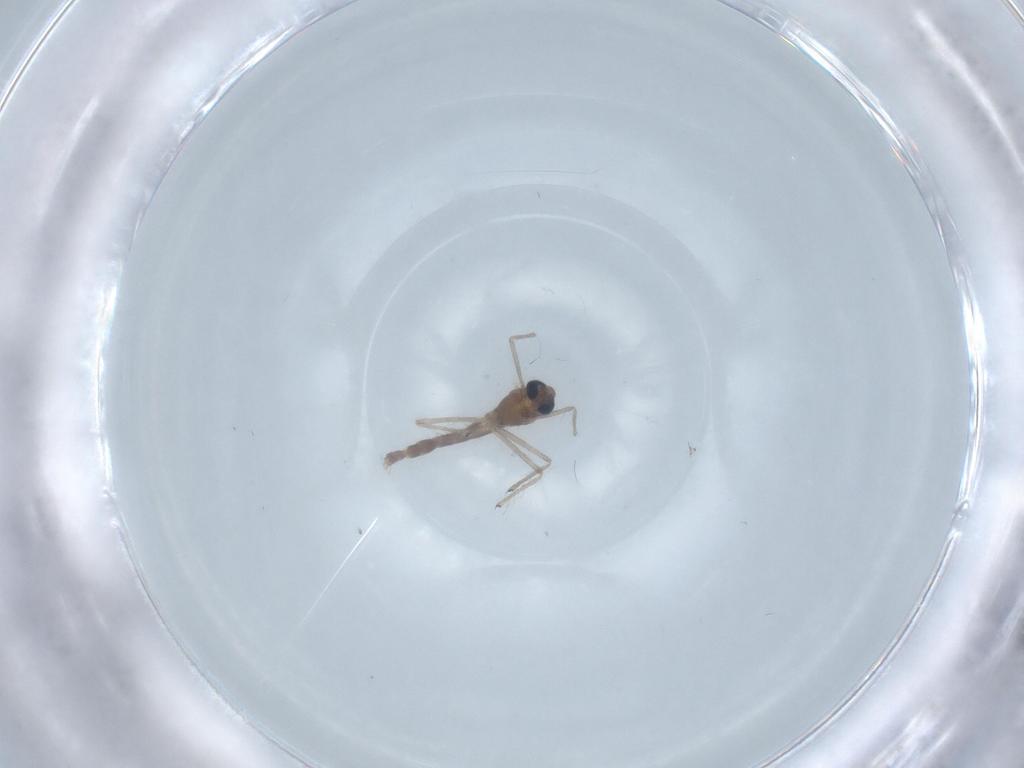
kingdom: Animalia
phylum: Arthropoda
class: Insecta
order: Diptera
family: Chironomidae
